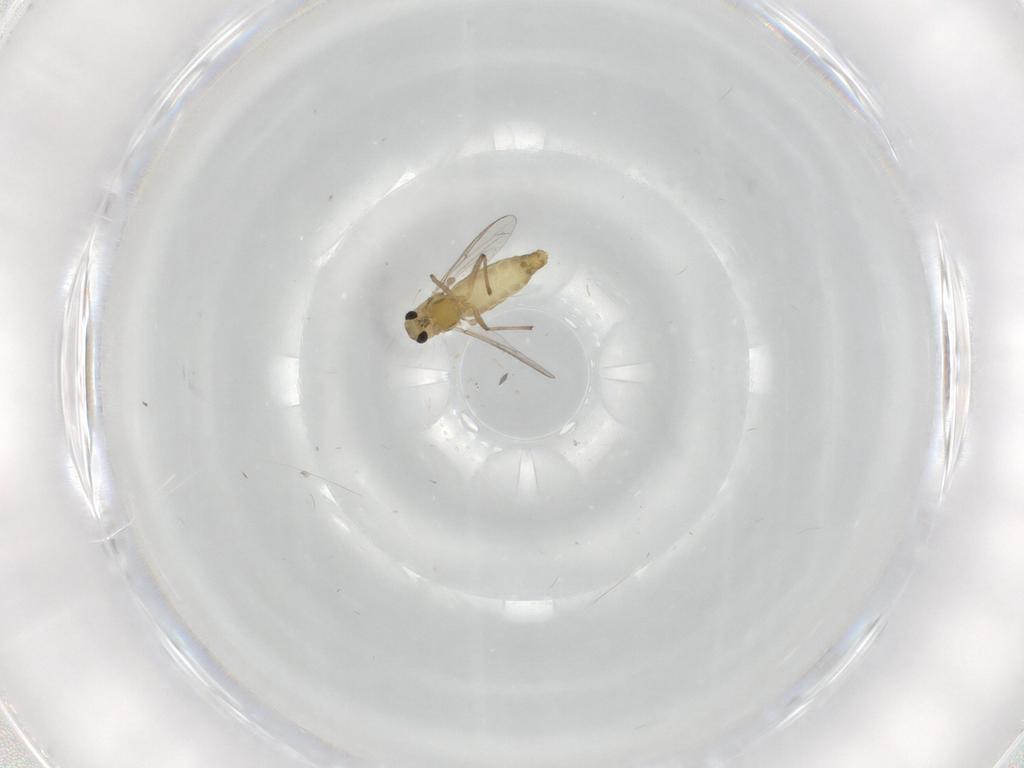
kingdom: Animalia
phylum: Arthropoda
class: Insecta
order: Diptera
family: Chironomidae
